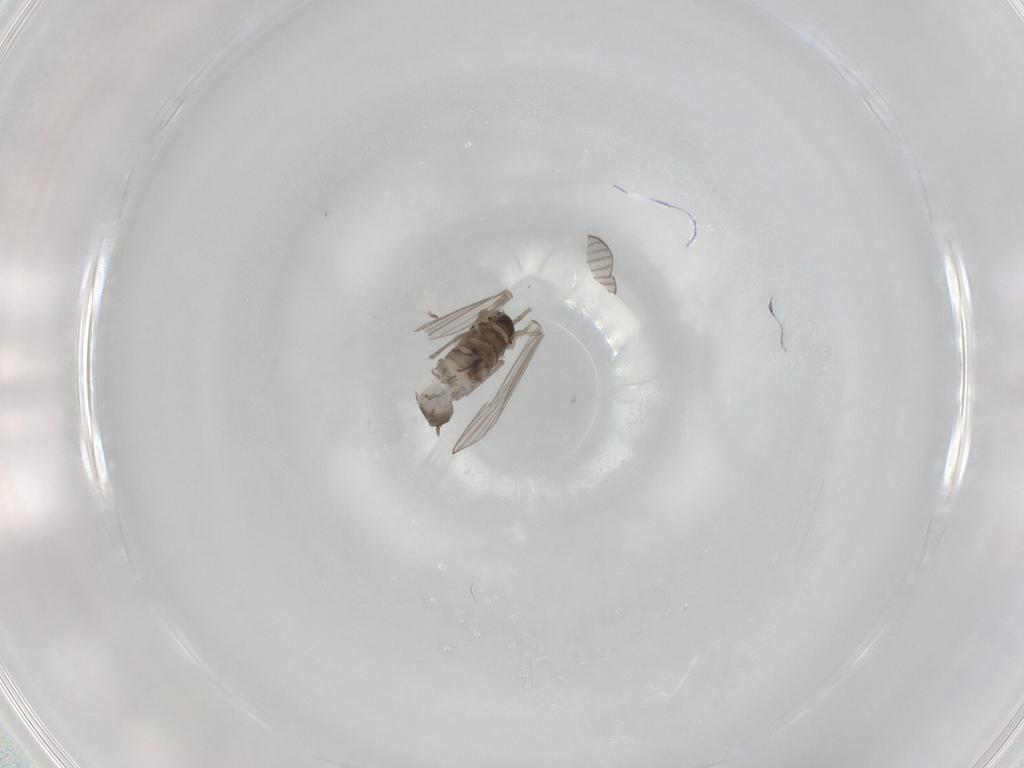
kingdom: Animalia
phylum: Arthropoda
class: Insecta
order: Diptera
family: Psychodidae
